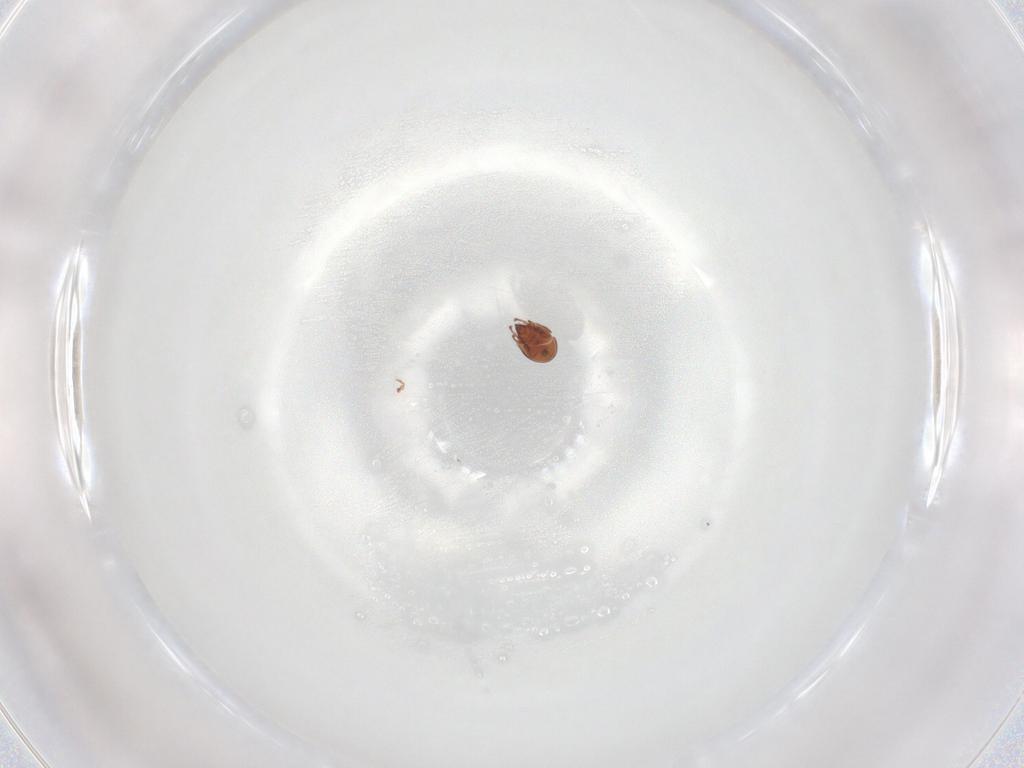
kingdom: Animalia
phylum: Arthropoda
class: Arachnida
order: Sarcoptiformes
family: Scheloribatidae
